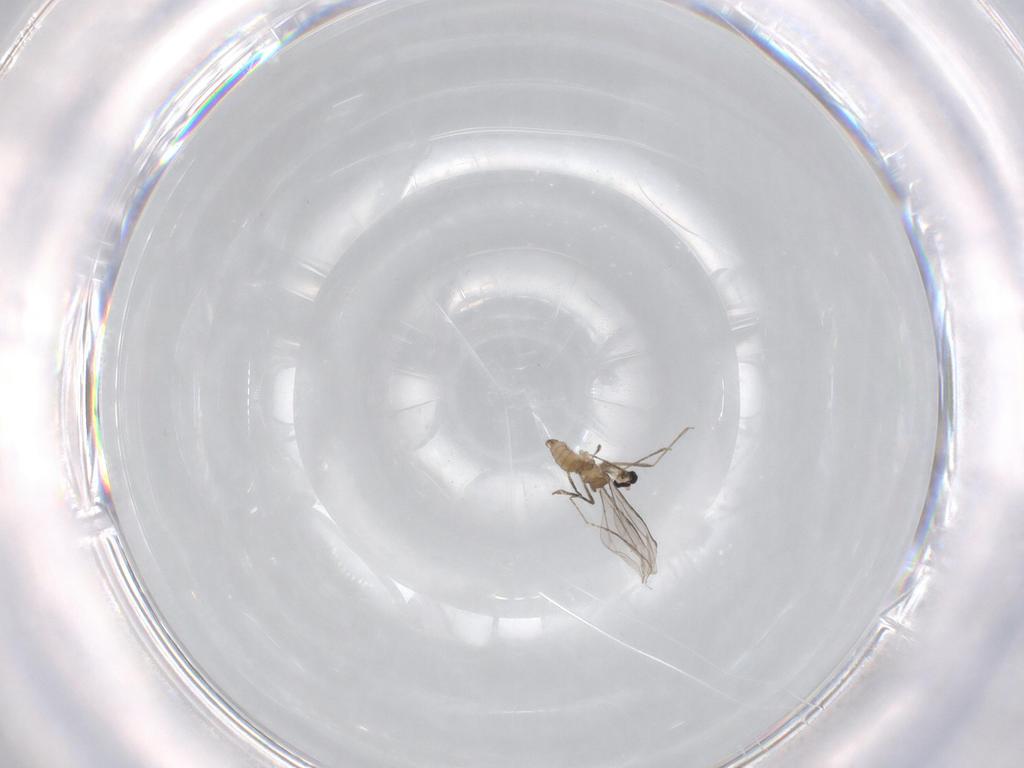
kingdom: Animalia
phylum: Arthropoda
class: Insecta
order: Diptera
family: Cecidomyiidae
